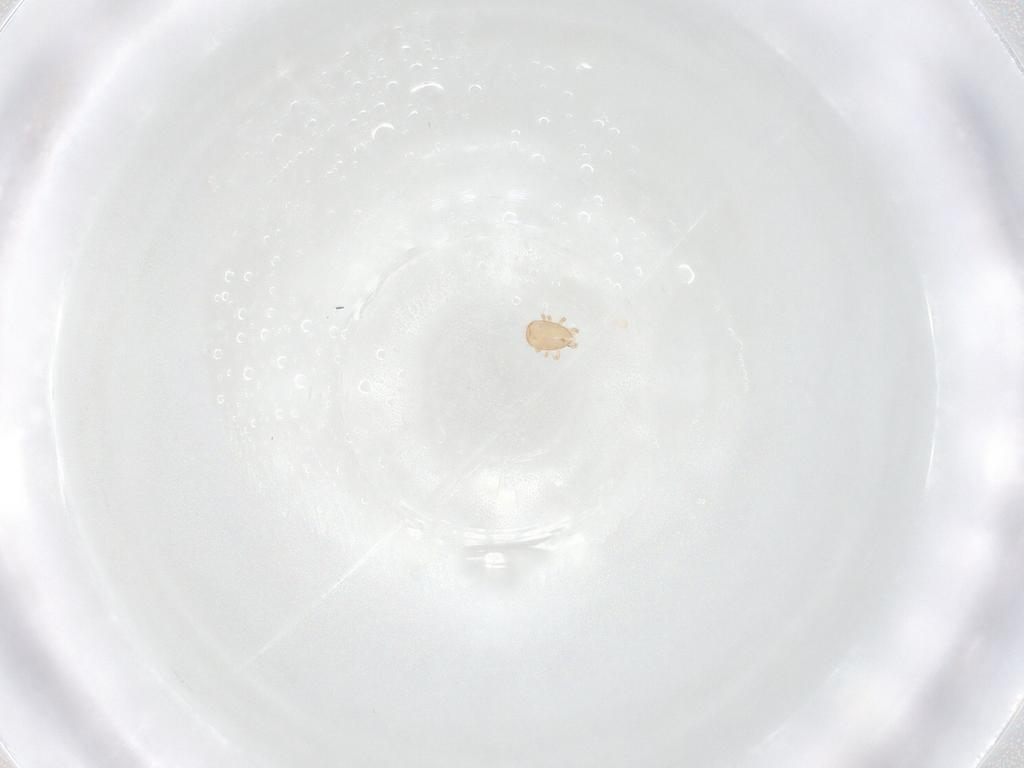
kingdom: Animalia
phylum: Arthropoda
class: Arachnida
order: Mesostigmata
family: Ascidae
